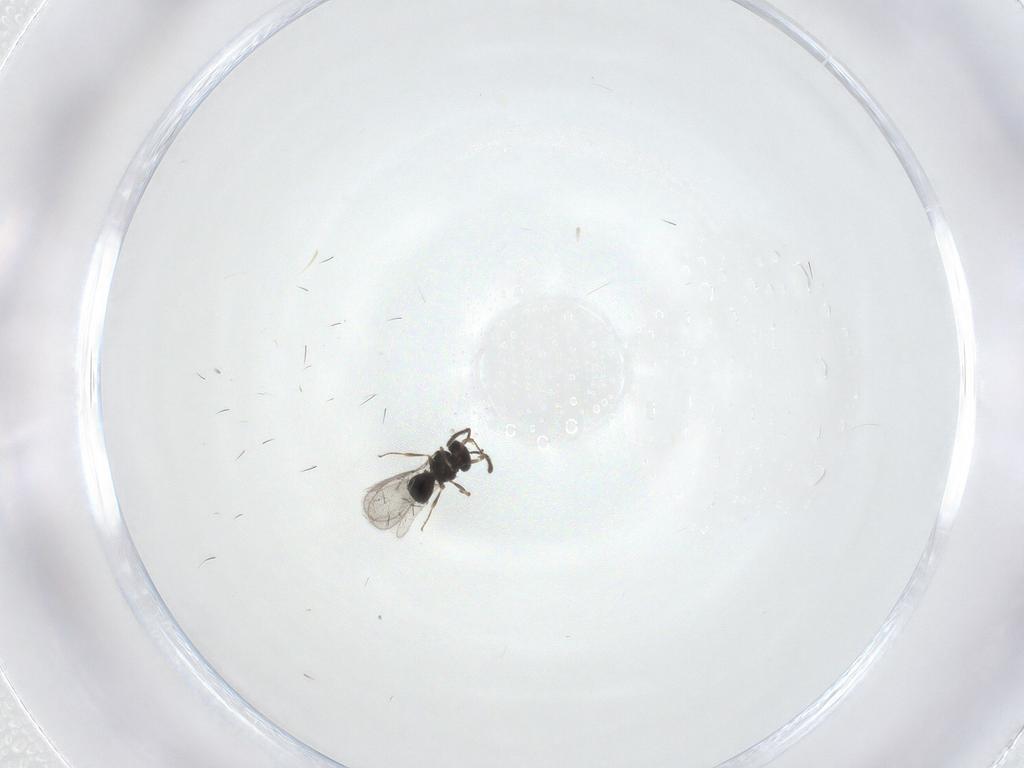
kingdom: Animalia
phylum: Arthropoda
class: Insecta
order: Hymenoptera
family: Scelionidae
